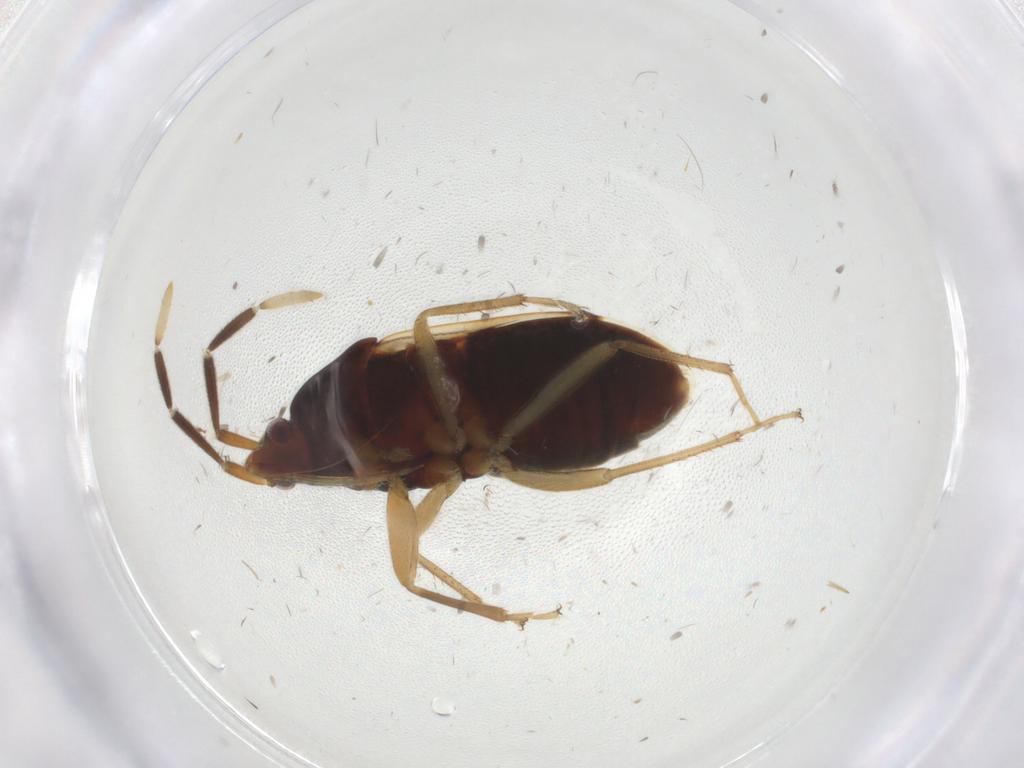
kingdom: Animalia
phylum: Arthropoda
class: Insecta
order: Hemiptera
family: Rhyparochromidae
